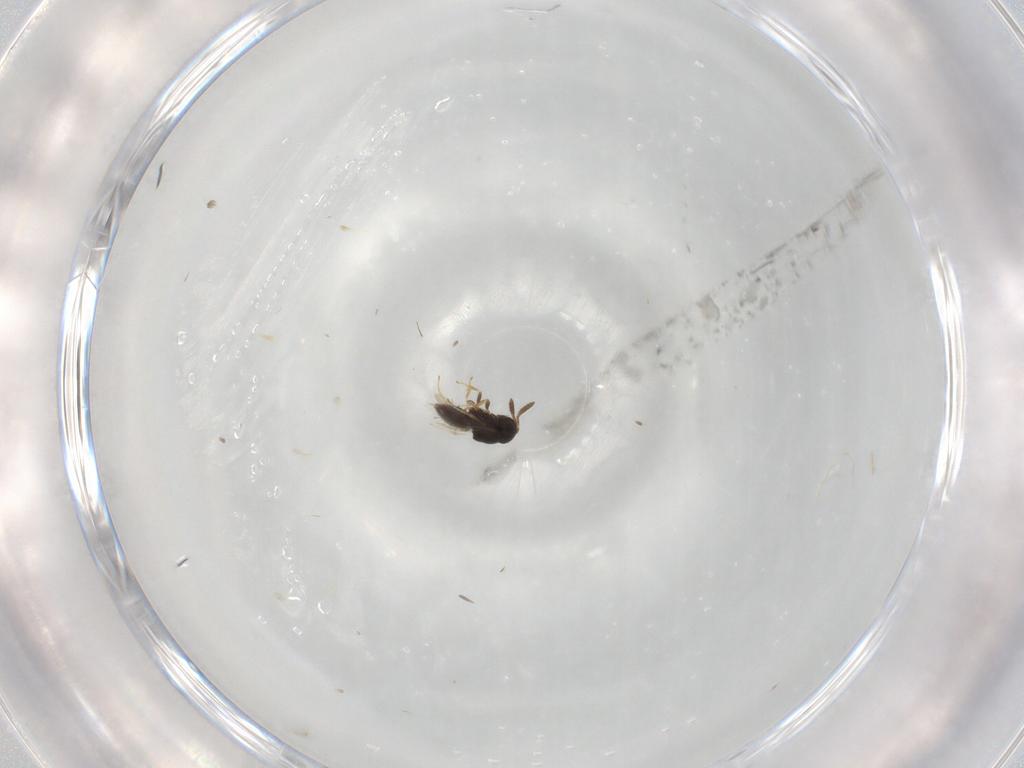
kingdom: Animalia
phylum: Arthropoda
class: Insecta
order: Hymenoptera
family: Scelionidae
